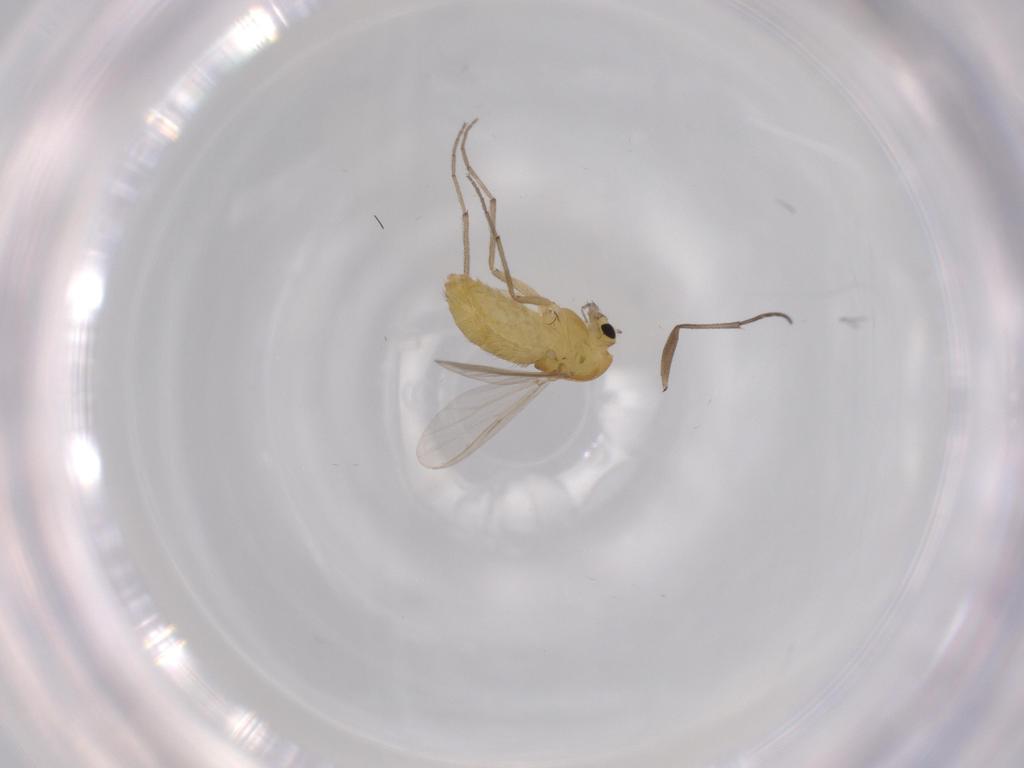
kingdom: Animalia
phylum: Arthropoda
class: Insecta
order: Diptera
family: Chironomidae
